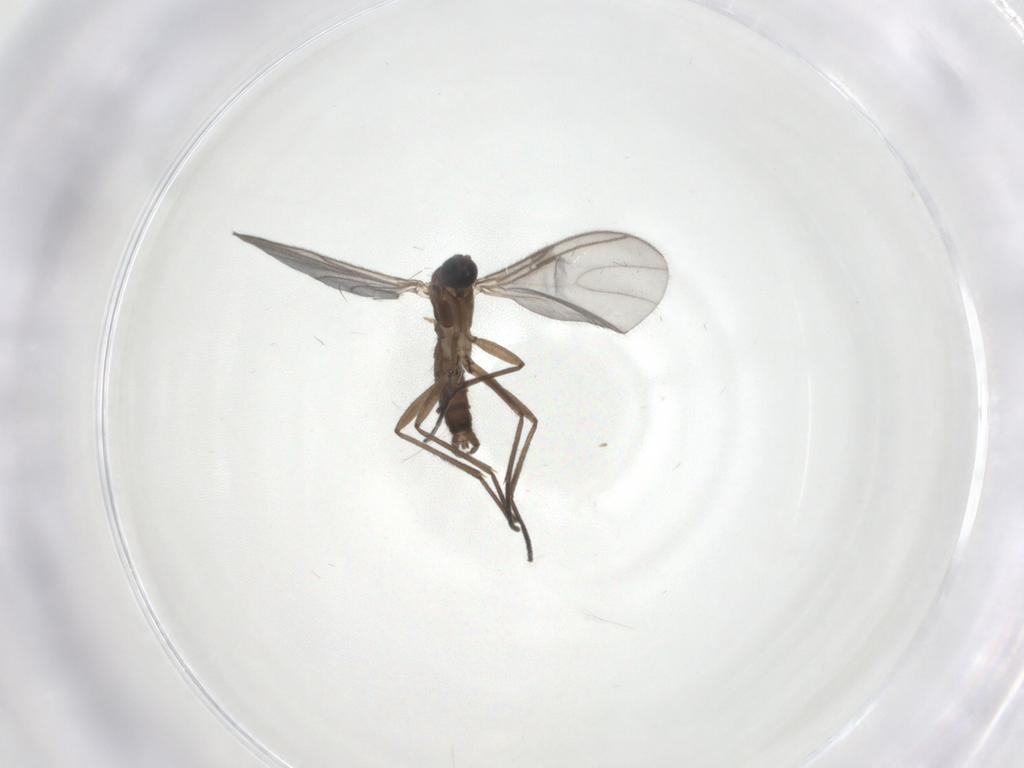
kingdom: Animalia
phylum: Arthropoda
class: Insecta
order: Diptera
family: Sciaridae
